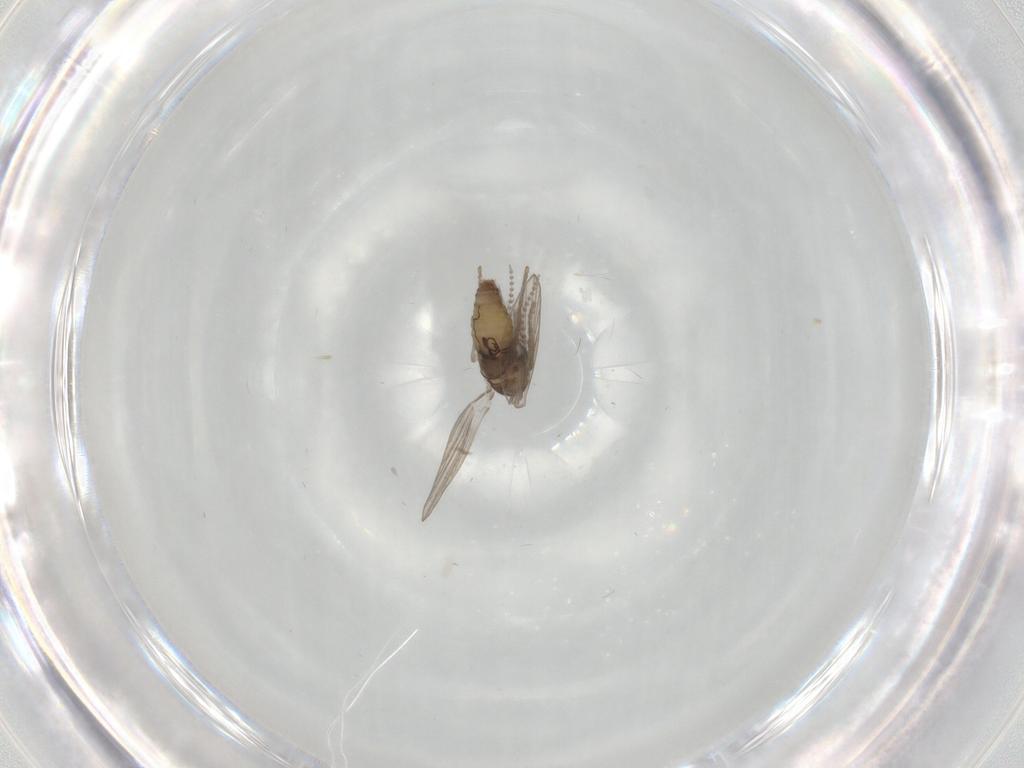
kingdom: Animalia
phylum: Arthropoda
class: Insecta
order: Diptera
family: Psychodidae
